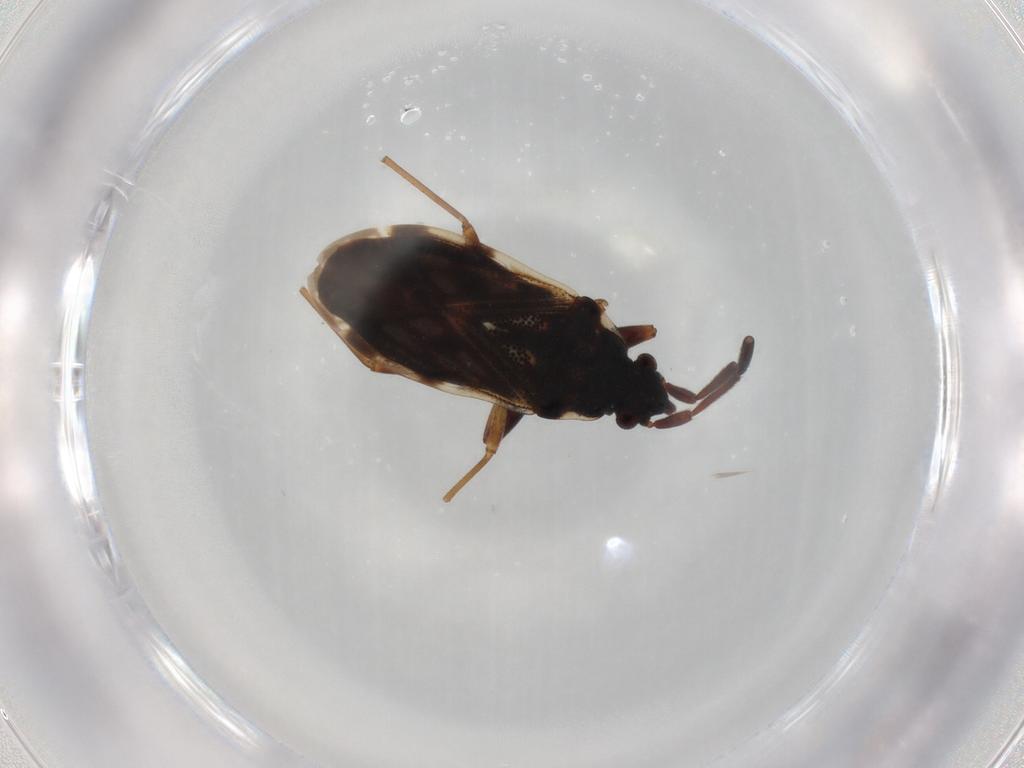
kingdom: Animalia
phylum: Arthropoda
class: Insecta
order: Hemiptera
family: Rhyparochromidae
